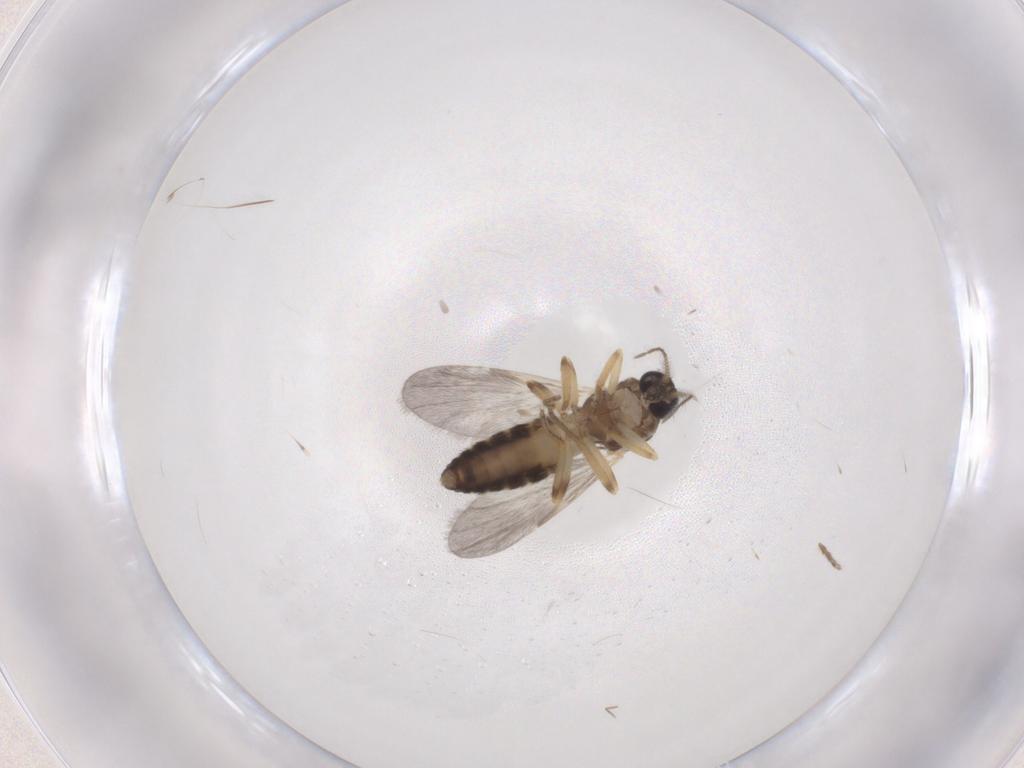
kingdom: Animalia
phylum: Arthropoda
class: Insecta
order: Diptera
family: Ceratopogonidae
